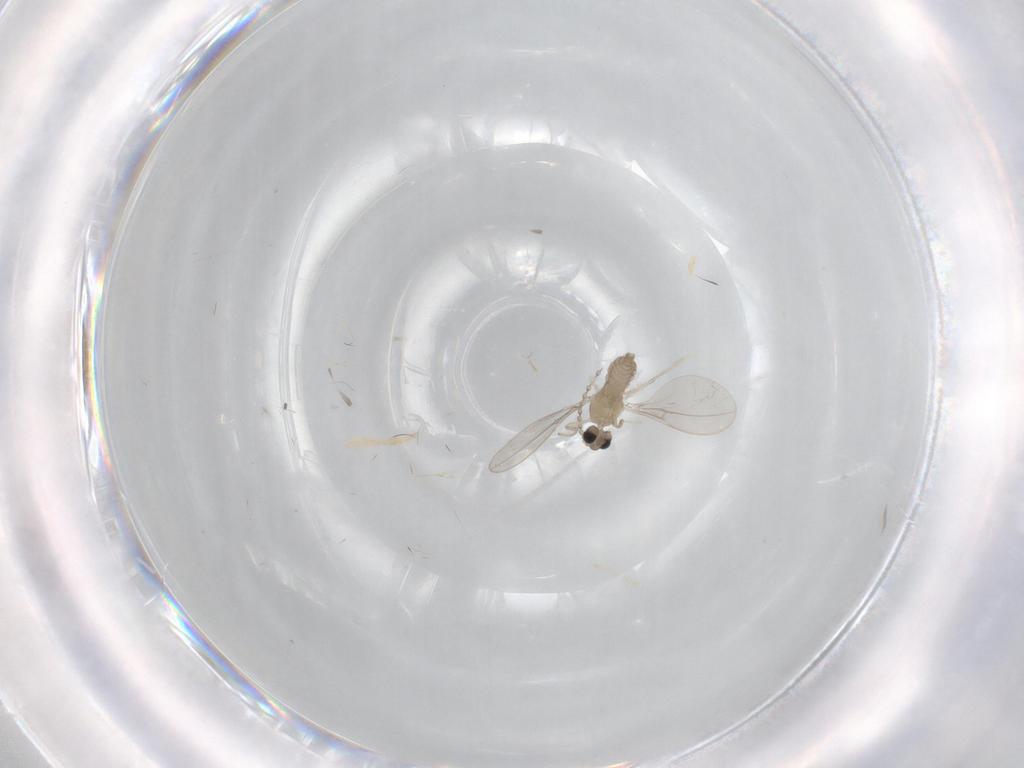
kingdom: Animalia
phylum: Arthropoda
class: Insecta
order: Diptera
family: Cecidomyiidae
